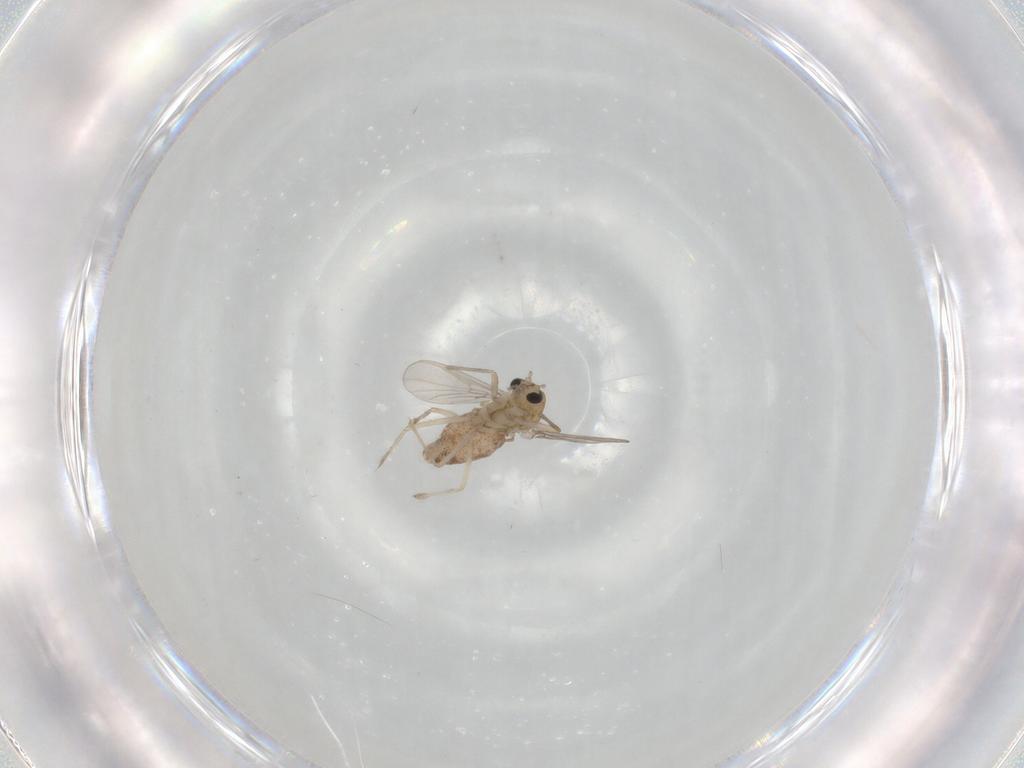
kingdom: Animalia
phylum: Arthropoda
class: Insecta
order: Diptera
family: Chironomidae
